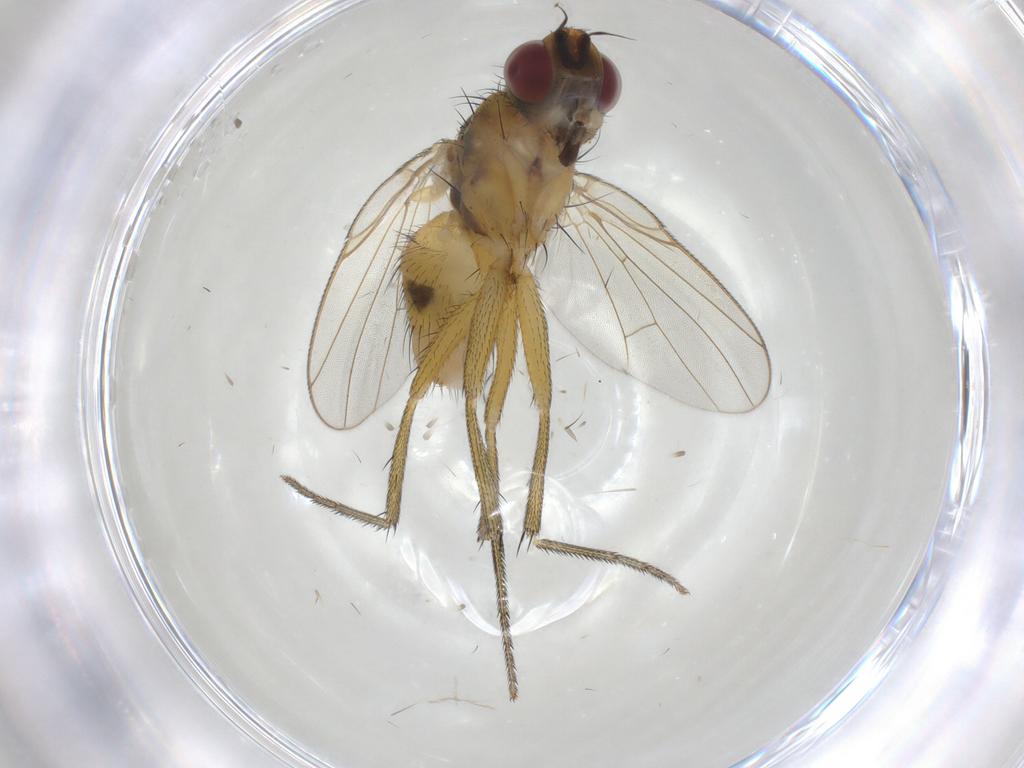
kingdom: Animalia
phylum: Arthropoda
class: Insecta
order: Diptera
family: Muscidae
